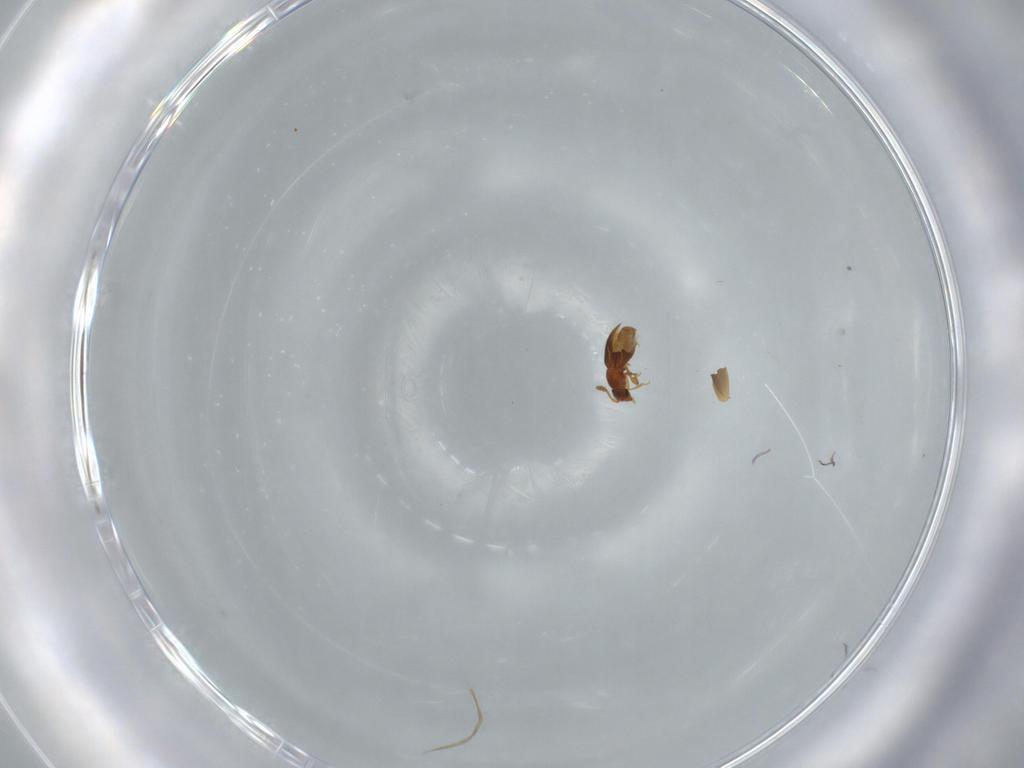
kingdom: Animalia
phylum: Arthropoda
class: Insecta
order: Coleoptera
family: Staphylinidae
